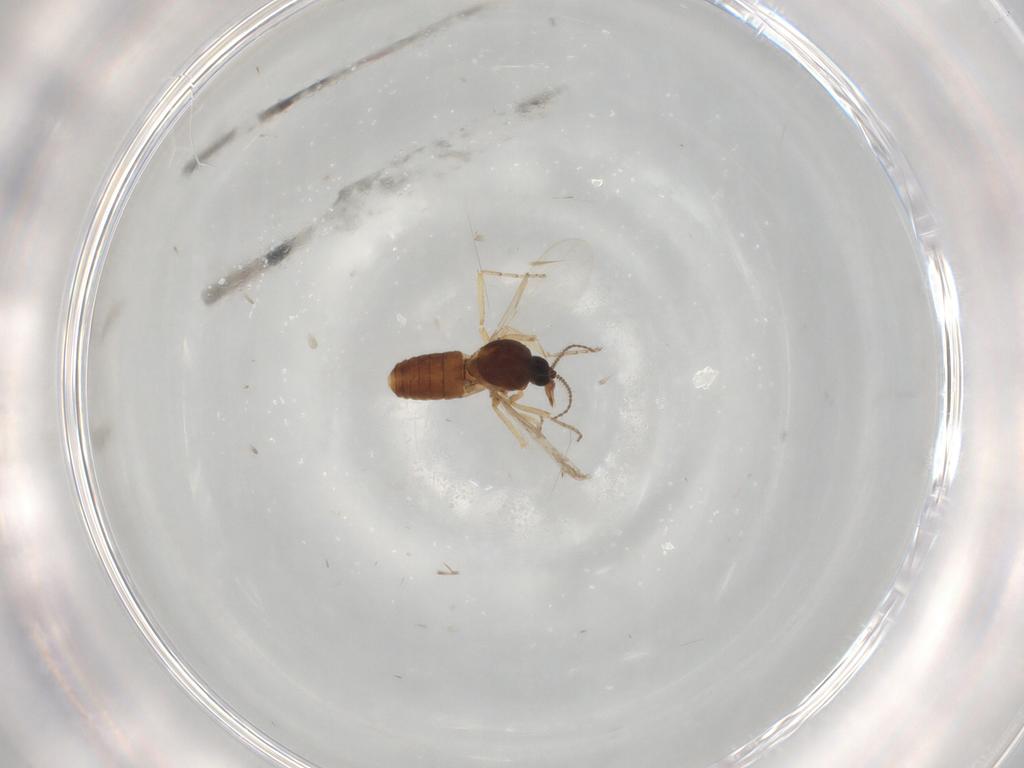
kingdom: Animalia
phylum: Arthropoda
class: Insecta
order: Diptera
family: Ceratopogonidae
